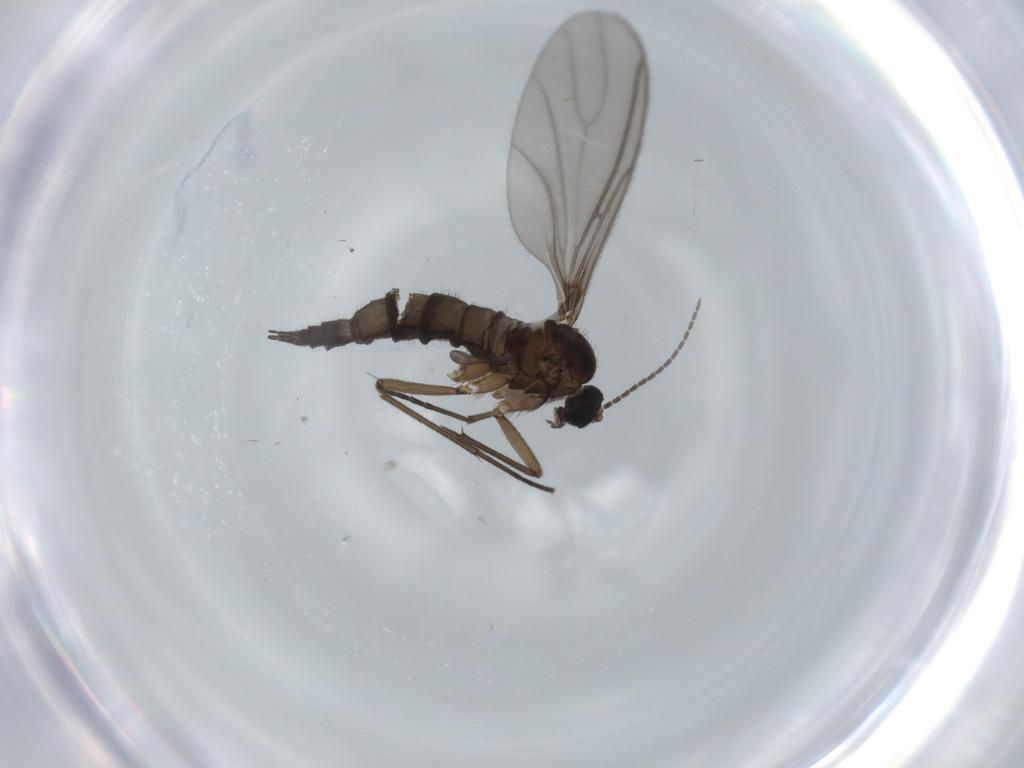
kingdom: Animalia
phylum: Arthropoda
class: Insecta
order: Diptera
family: Sciaridae
